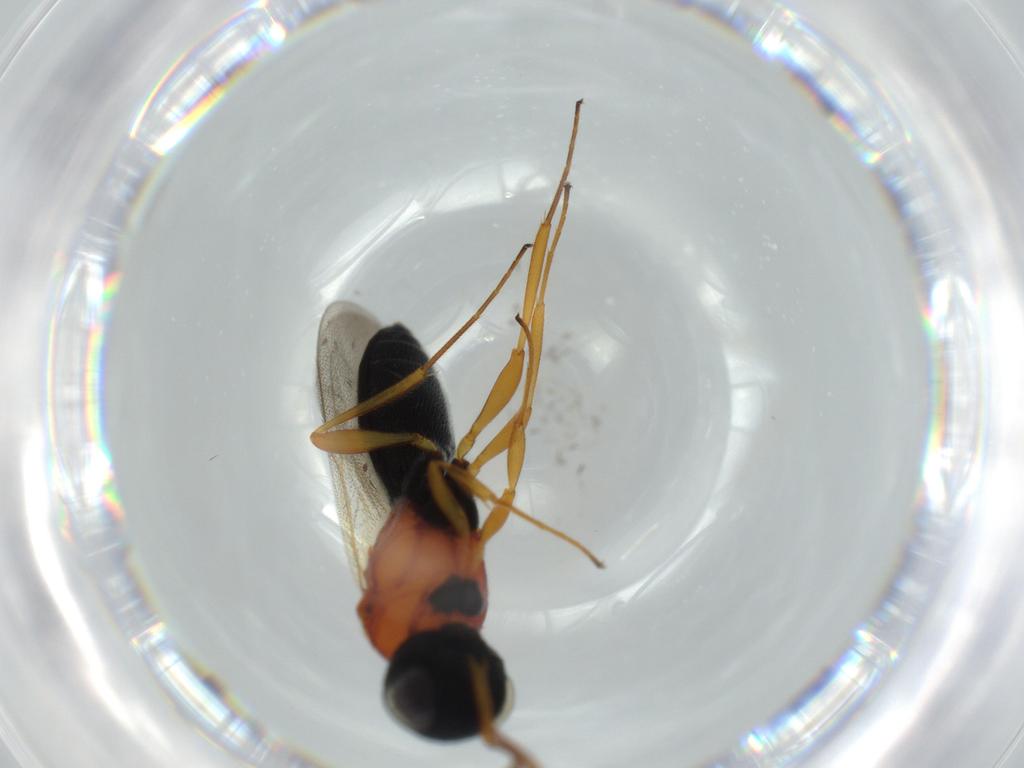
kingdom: Animalia
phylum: Arthropoda
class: Insecta
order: Hymenoptera
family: Scelionidae
